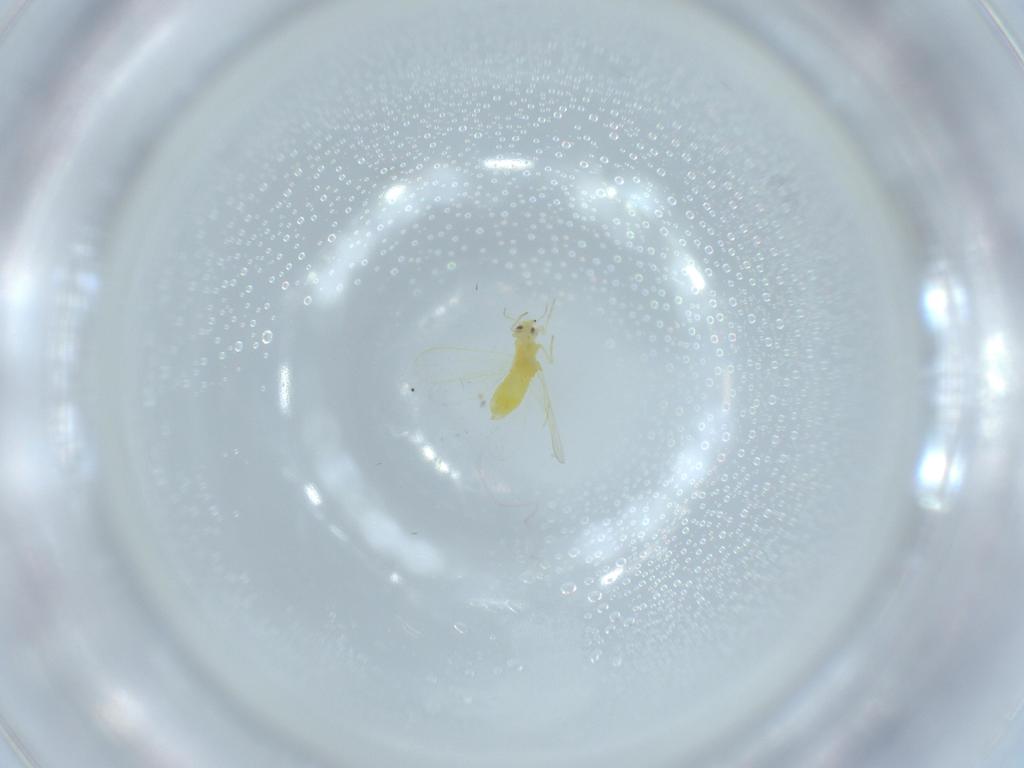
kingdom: Animalia
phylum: Arthropoda
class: Insecta
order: Hemiptera
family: Aleyrodidae
